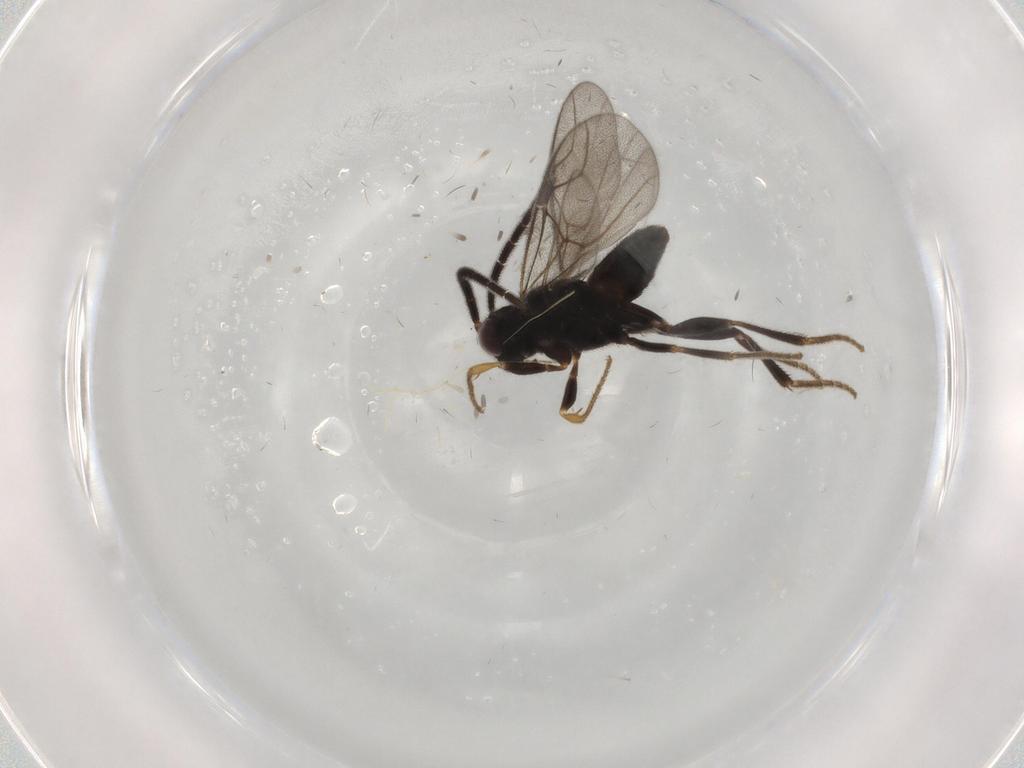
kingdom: Animalia
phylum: Arthropoda
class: Insecta
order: Hymenoptera
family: Dryinidae
